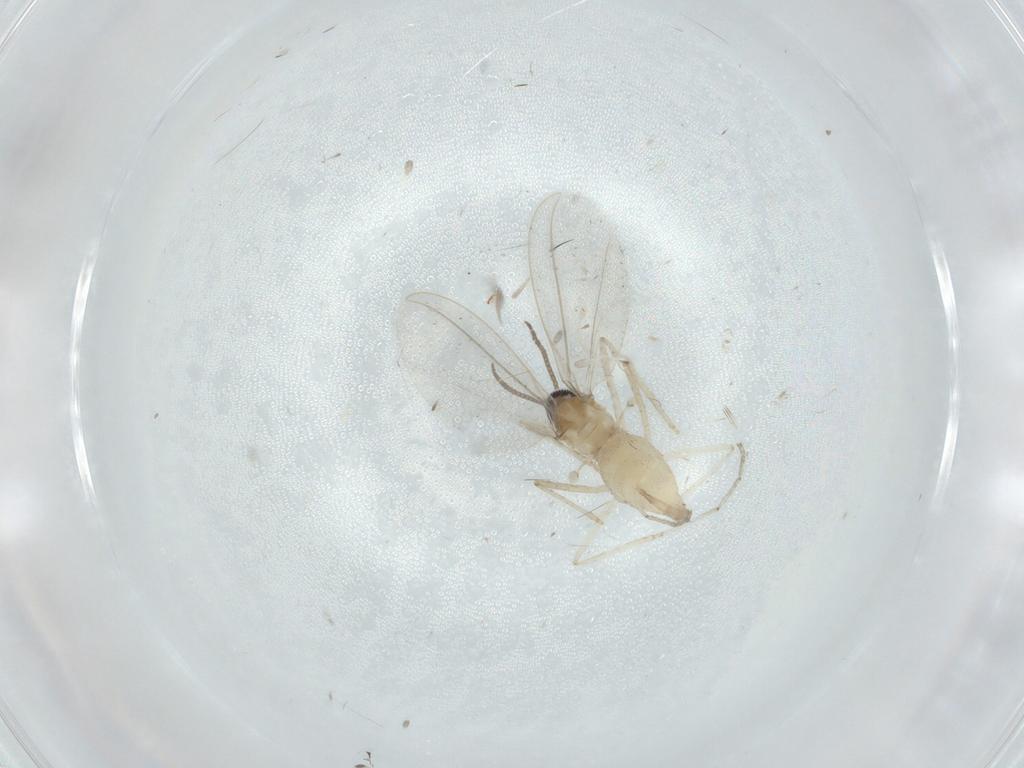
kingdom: Animalia
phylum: Arthropoda
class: Insecta
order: Diptera
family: Cecidomyiidae
